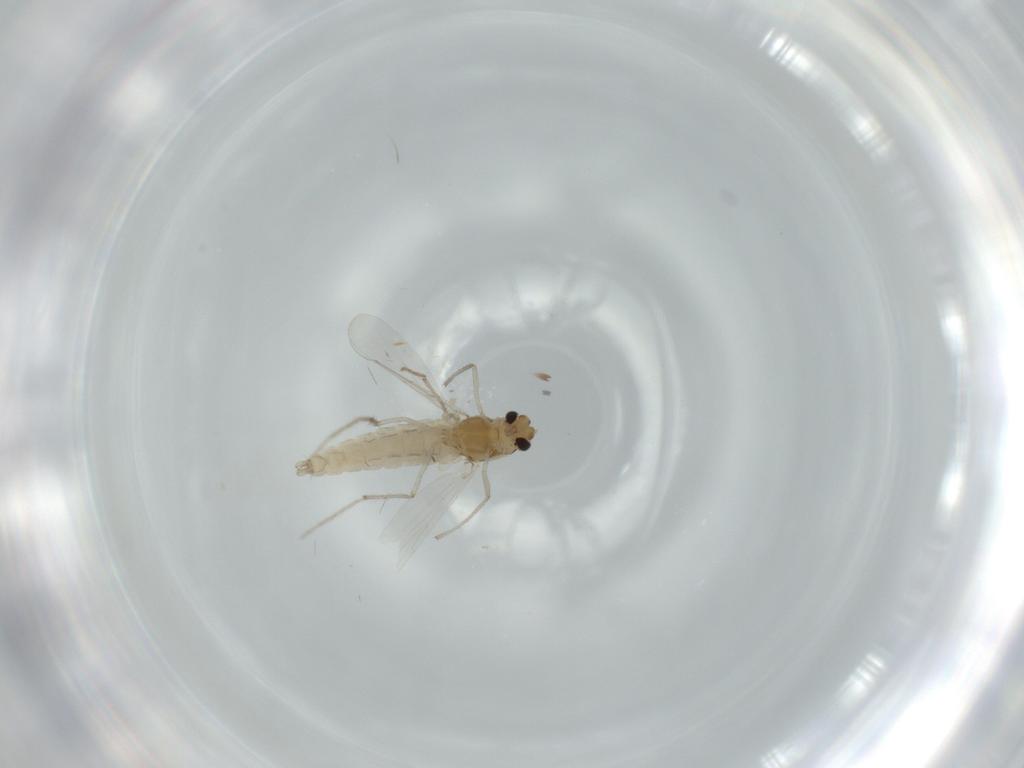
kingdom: Animalia
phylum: Arthropoda
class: Insecta
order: Diptera
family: Chironomidae
